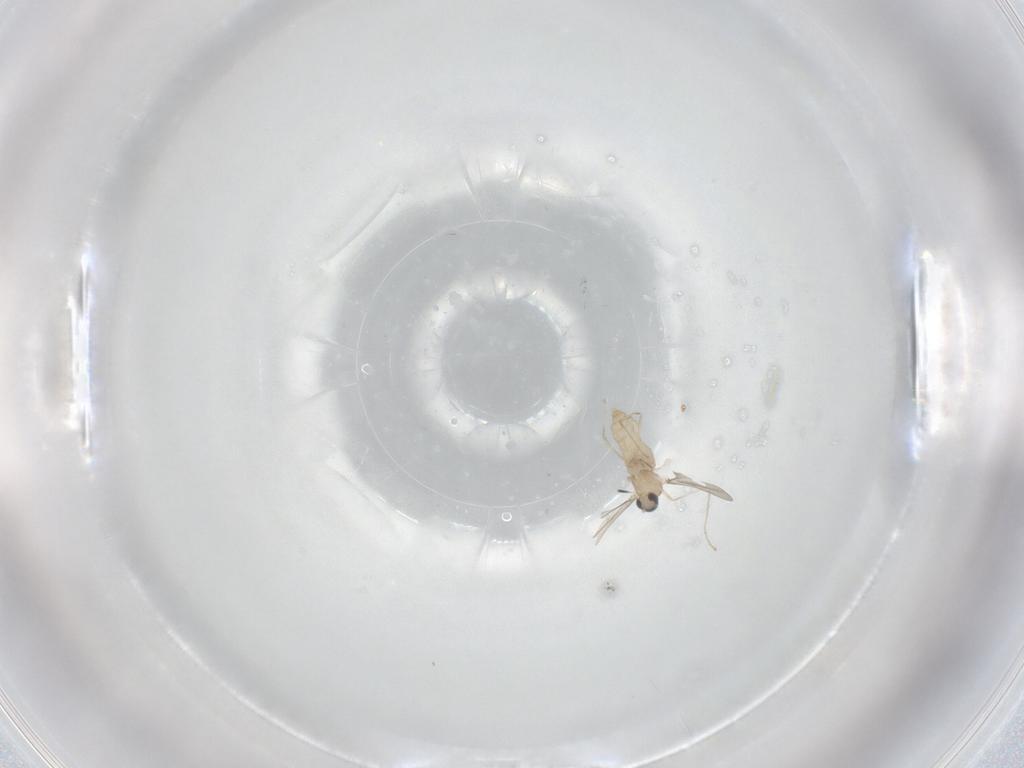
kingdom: Animalia
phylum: Arthropoda
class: Insecta
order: Diptera
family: Cecidomyiidae
